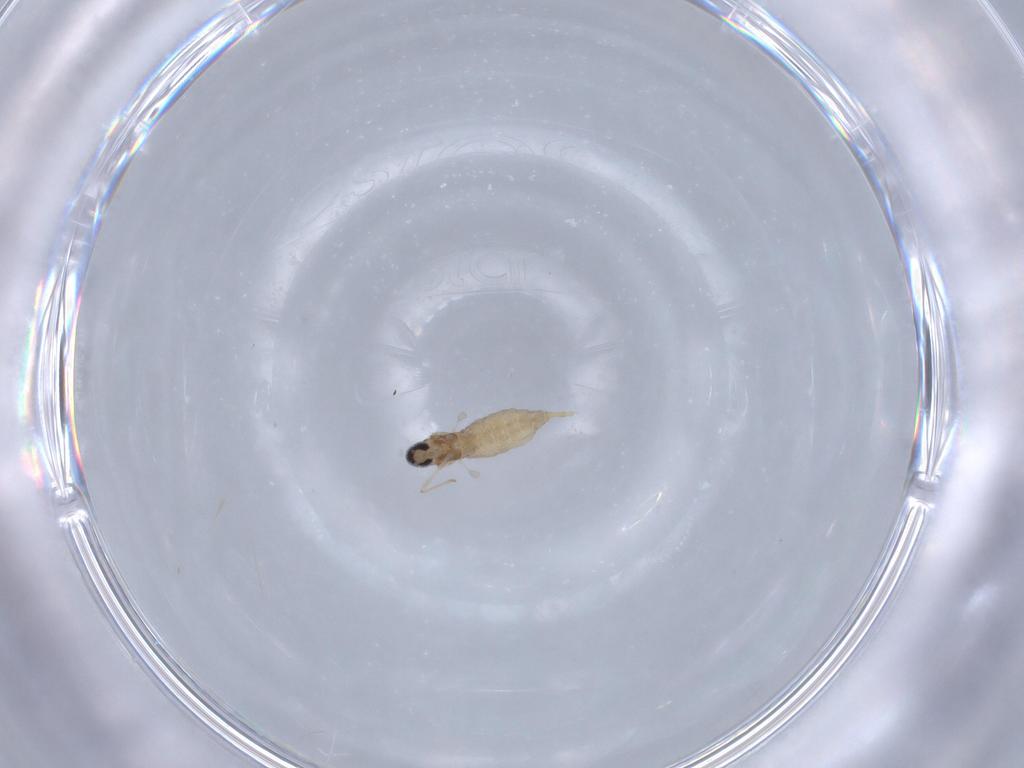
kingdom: Animalia
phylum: Arthropoda
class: Insecta
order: Diptera
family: Cecidomyiidae
